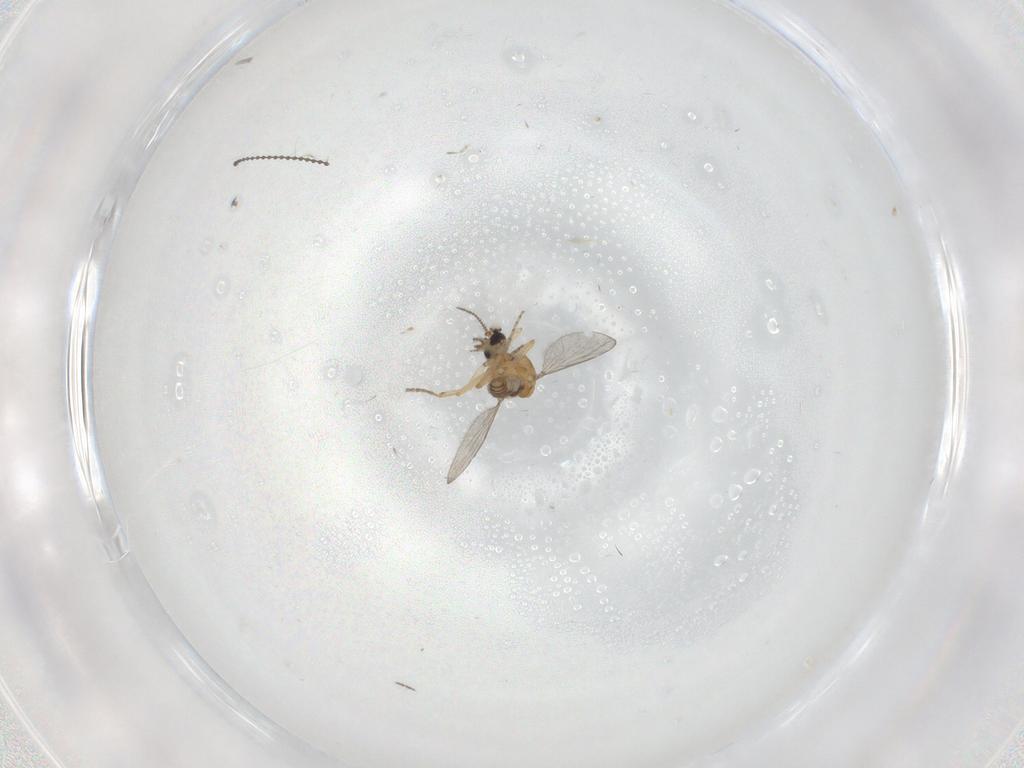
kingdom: Animalia
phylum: Arthropoda
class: Insecta
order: Diptera
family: Ceratopogonidae
